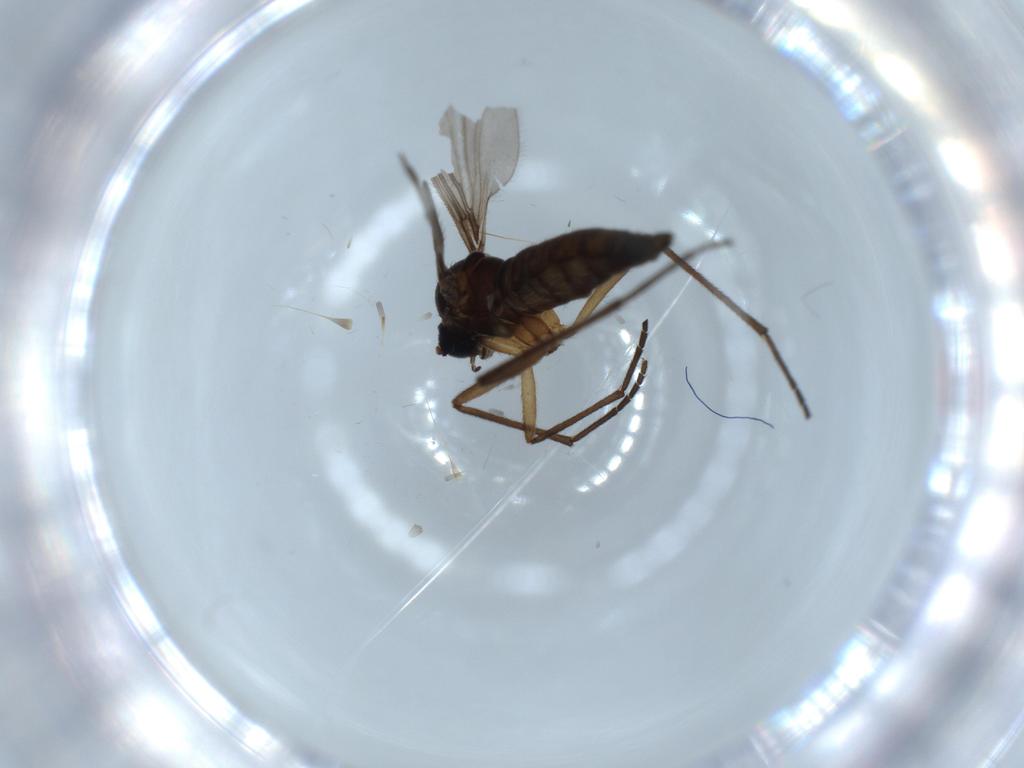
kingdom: Animalia
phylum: Arthropoda
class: Insecta
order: Diptera
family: Sciaridae
